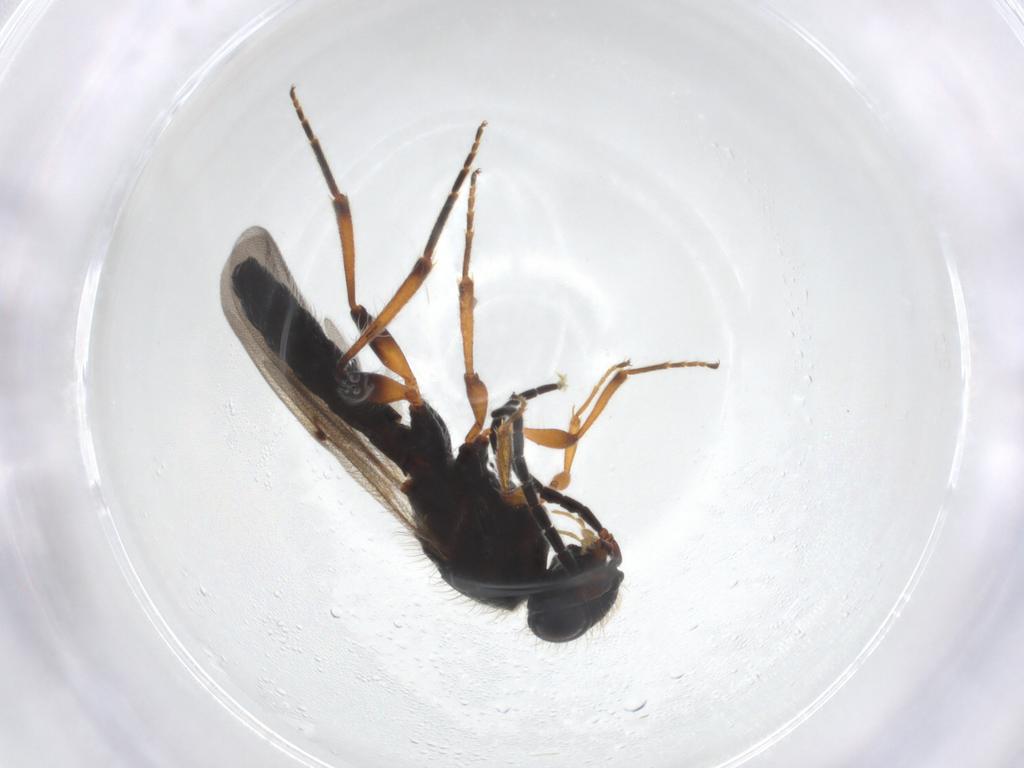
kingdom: Animalia
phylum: Arthropoda
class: Insecta
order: Hymenoptera
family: Scelionidae
